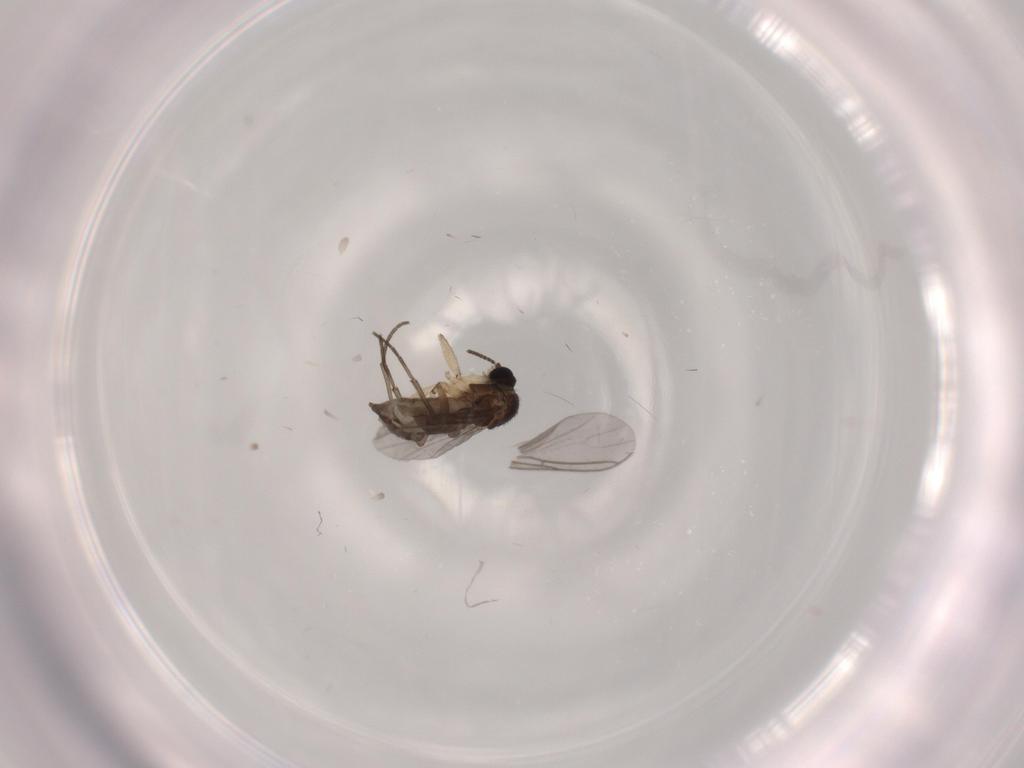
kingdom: Animalia
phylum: Arthropoda
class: Insecta
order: Diptera
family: Sciaridae
